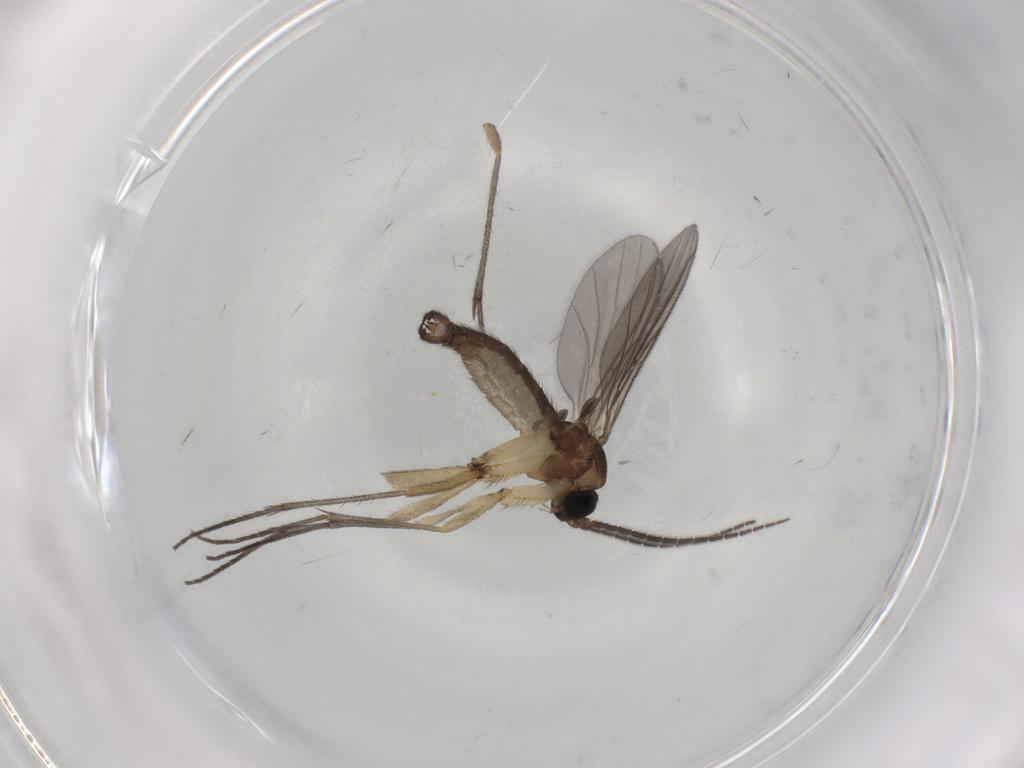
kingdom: Animalia
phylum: Arthropoda
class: Insecta
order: Diptera
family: Sciaridae
